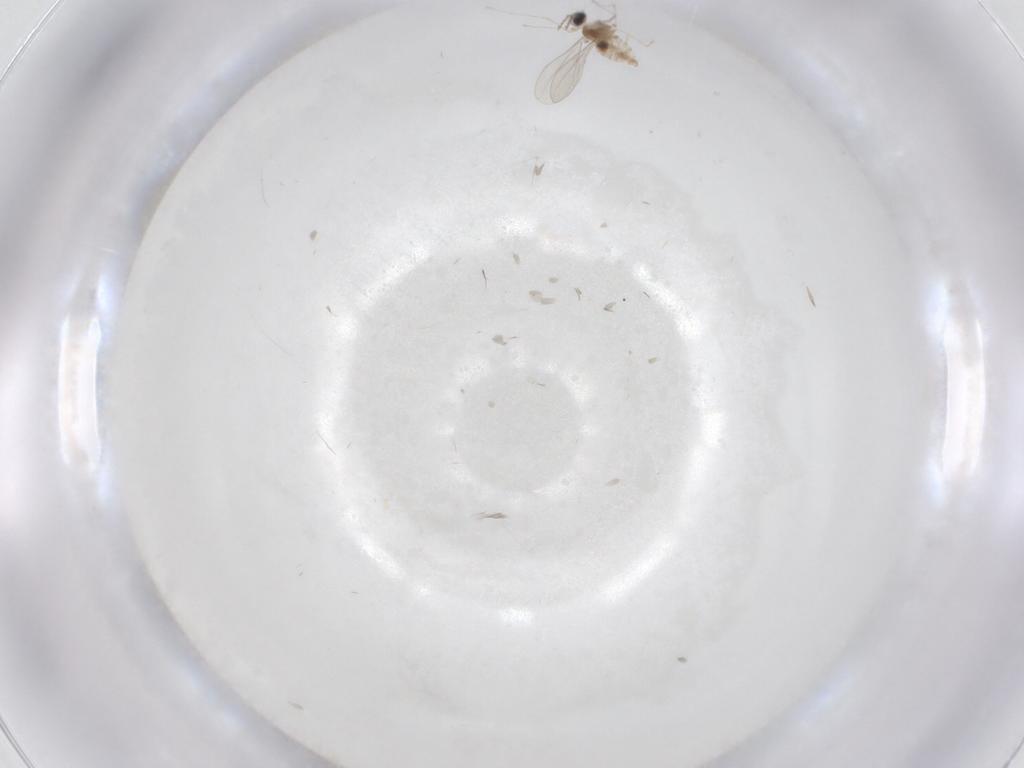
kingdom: Animalia
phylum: Arthropoda
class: Insecta
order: Diptera
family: Cecidomyiidae
